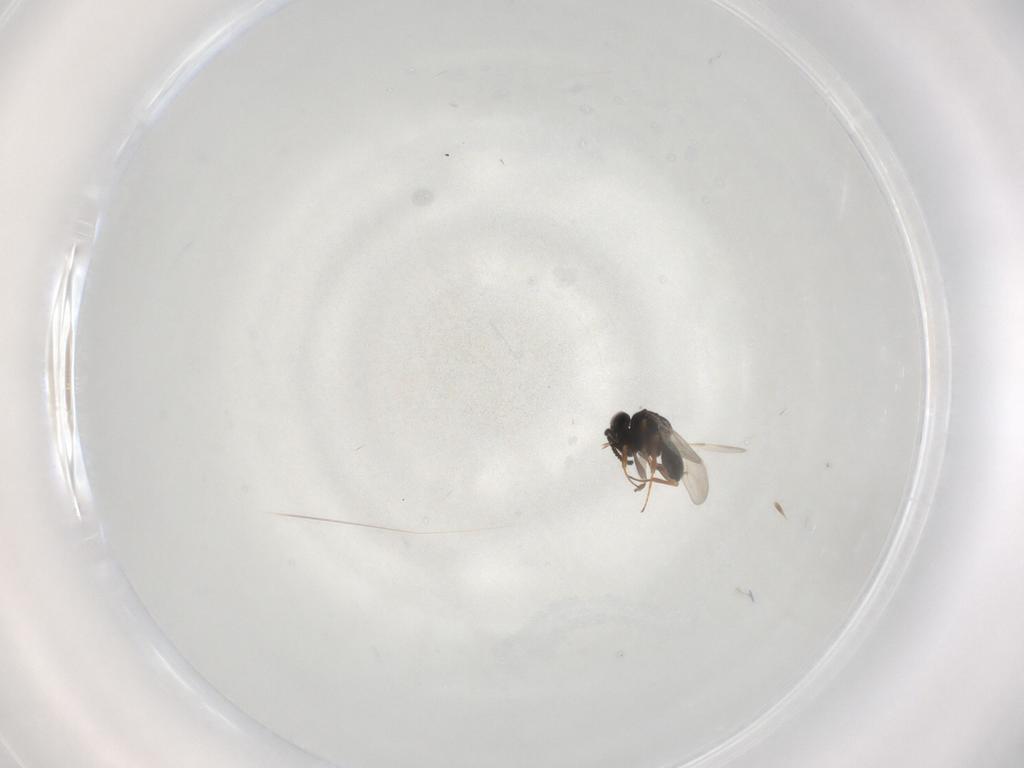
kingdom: Animalia
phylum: Arthropoda
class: Arachnida
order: Araneae
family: Pholcidae
